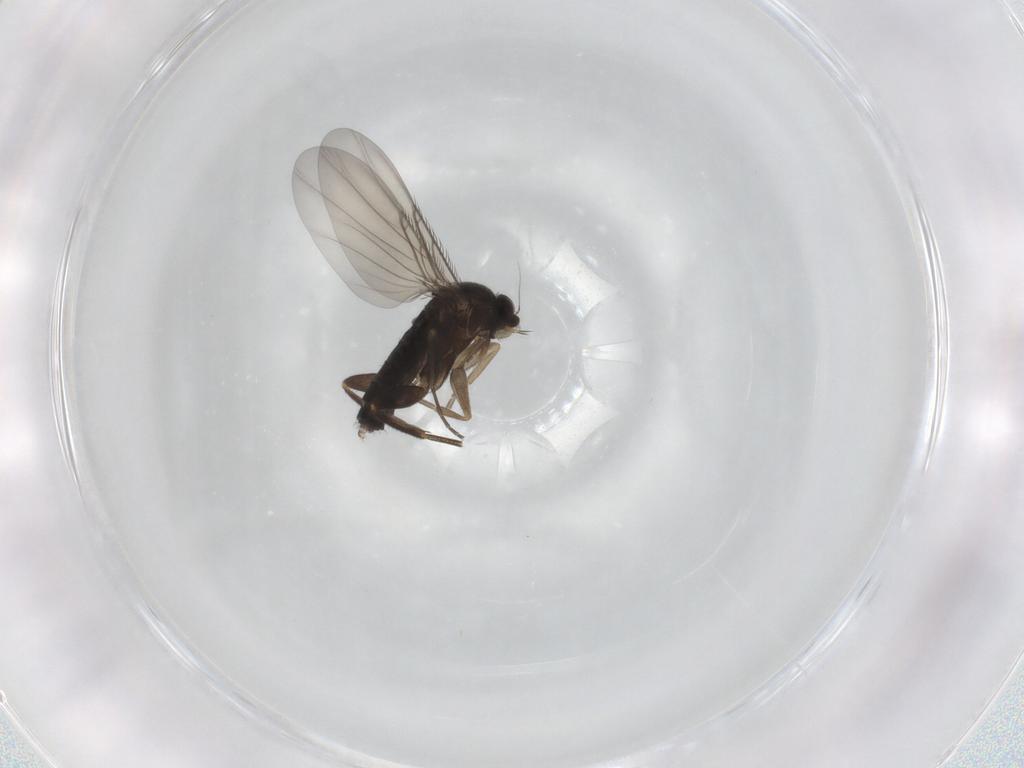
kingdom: Animalia
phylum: Arthropoda
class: Insecta
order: Diptera
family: Phoridae
